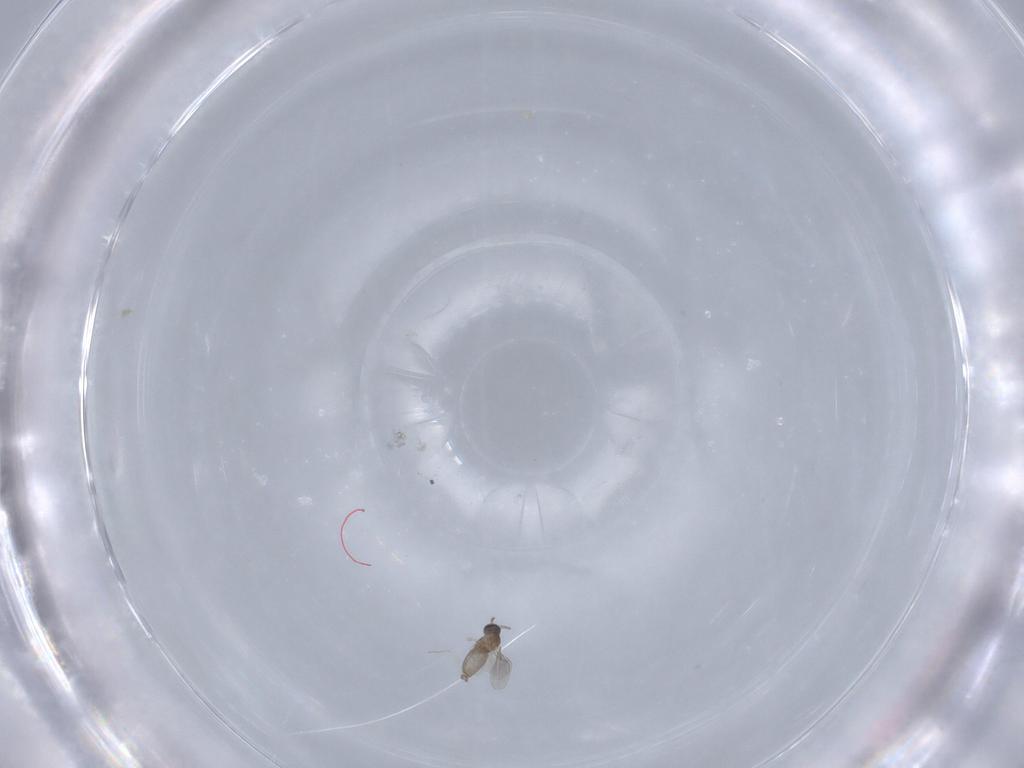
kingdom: Animalia
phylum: Arthropoda
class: Insecta
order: Diptera
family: Cecidomyiidae
